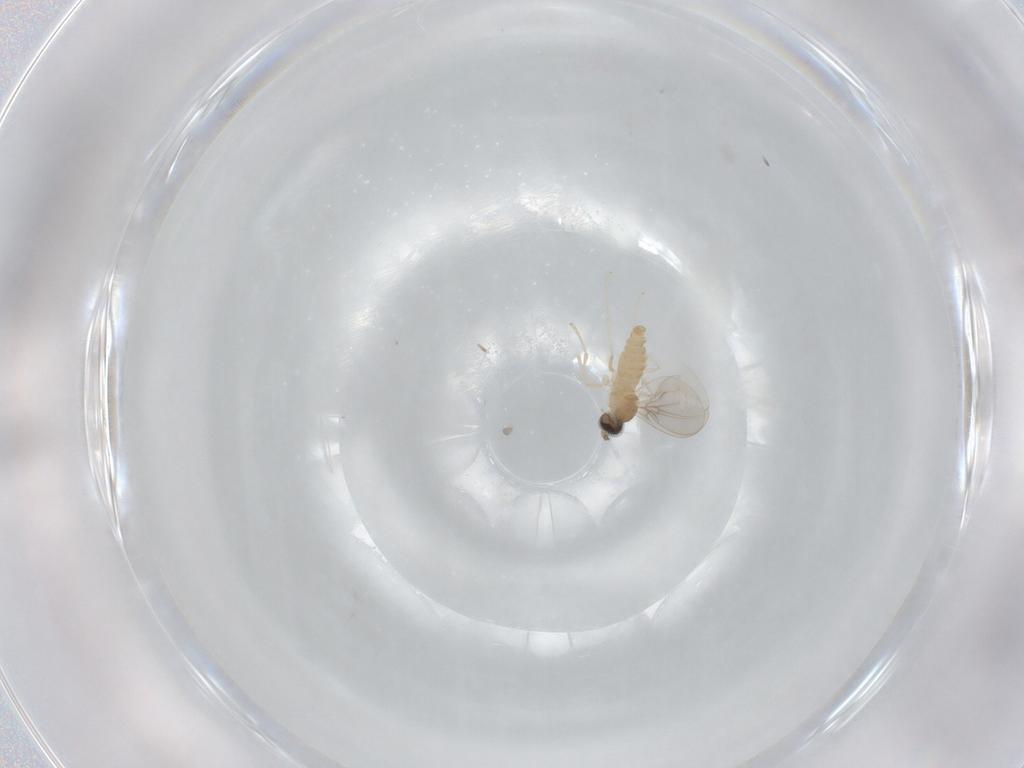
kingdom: Animalia
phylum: Arthropoda
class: Insecta
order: Diptera
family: Cecidomyiidae
